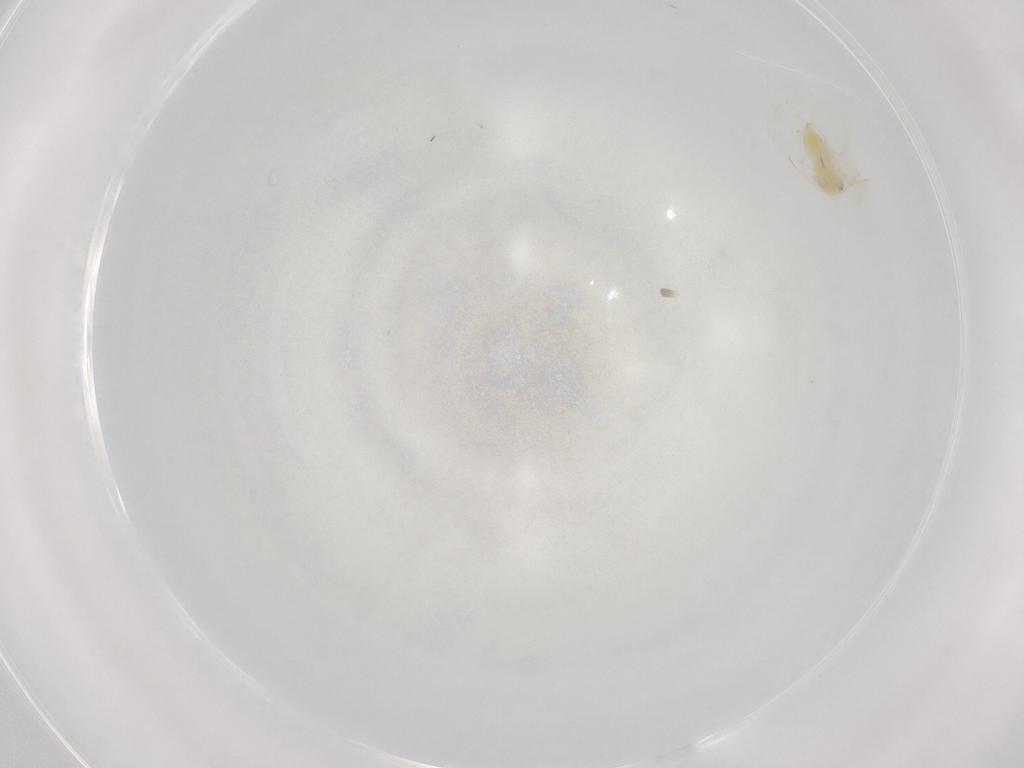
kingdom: Animalia
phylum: Arthropoda
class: Insecta
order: Hemiptera
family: Aleyrodidae
